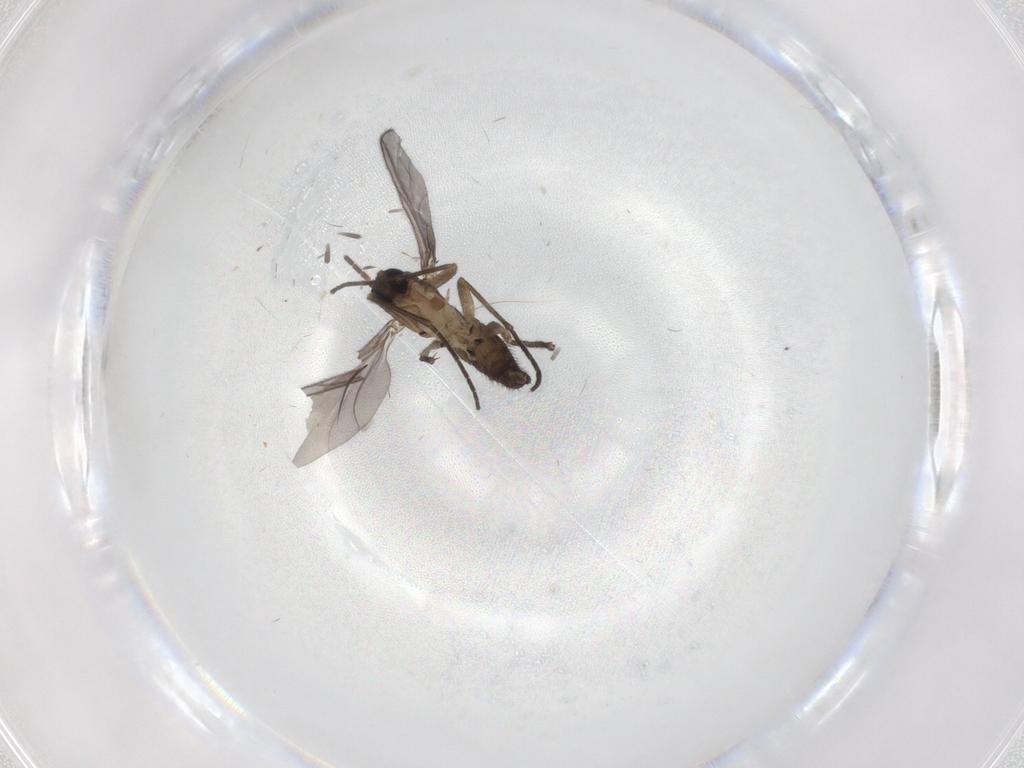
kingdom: Animalia
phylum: Arthropoda
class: Insecta
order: Diptera
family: Sciaridae
